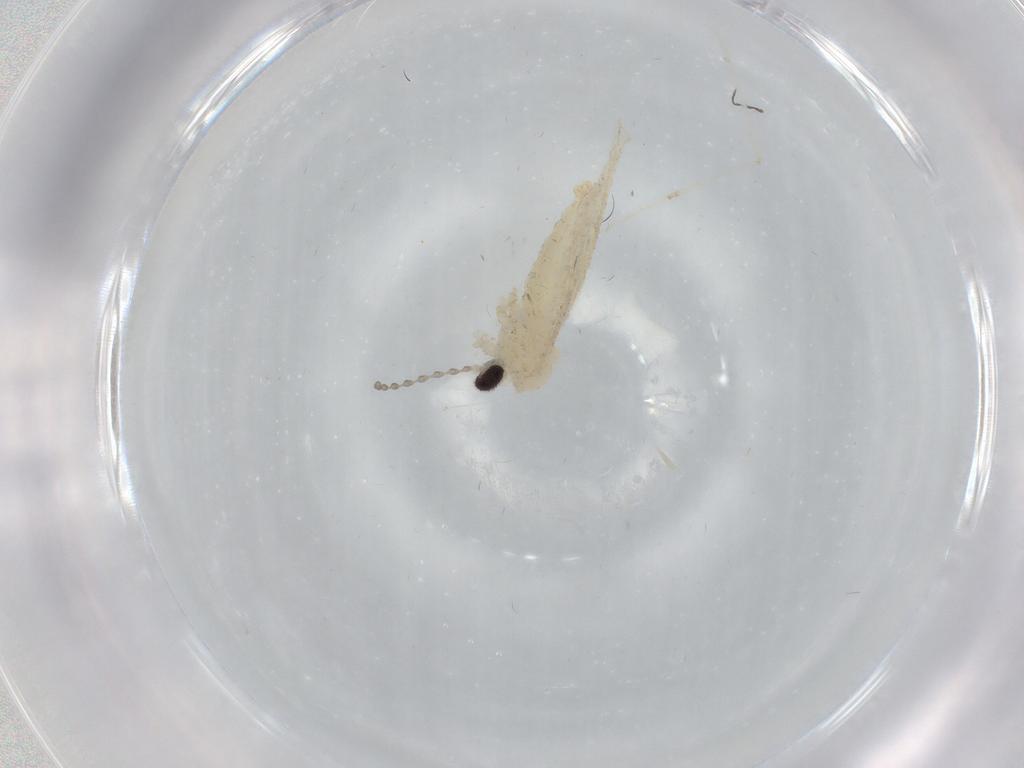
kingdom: Animalia
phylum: Arthropoda
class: Insecta
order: Diptera
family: Cecidomyiidae
